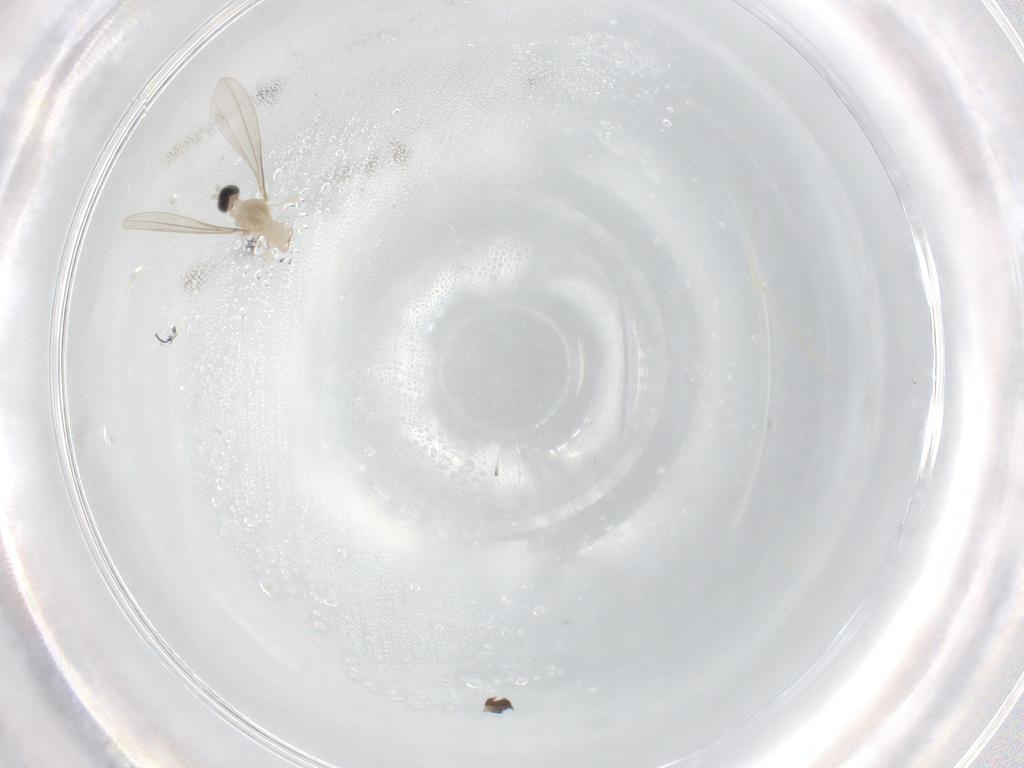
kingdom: Animalia
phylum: Arthropoda
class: Insecta
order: Diptera
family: Cecidomyiidae
